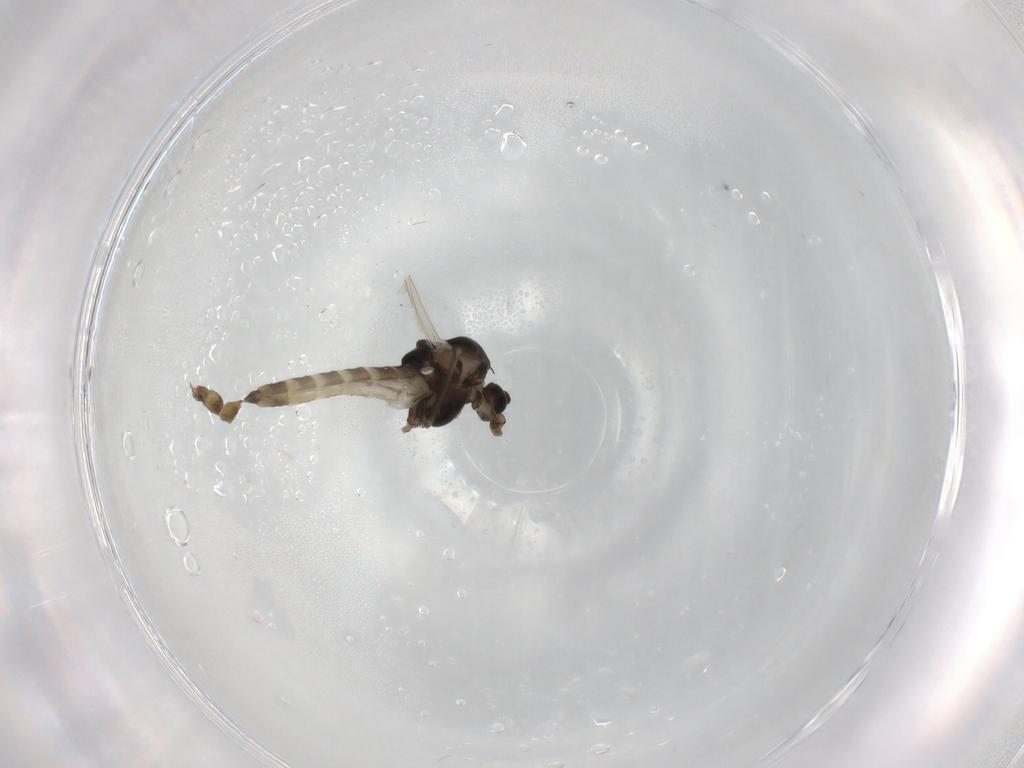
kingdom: Animalia
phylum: Arthropoda
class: Insecta
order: Diptera
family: Chironomidae
